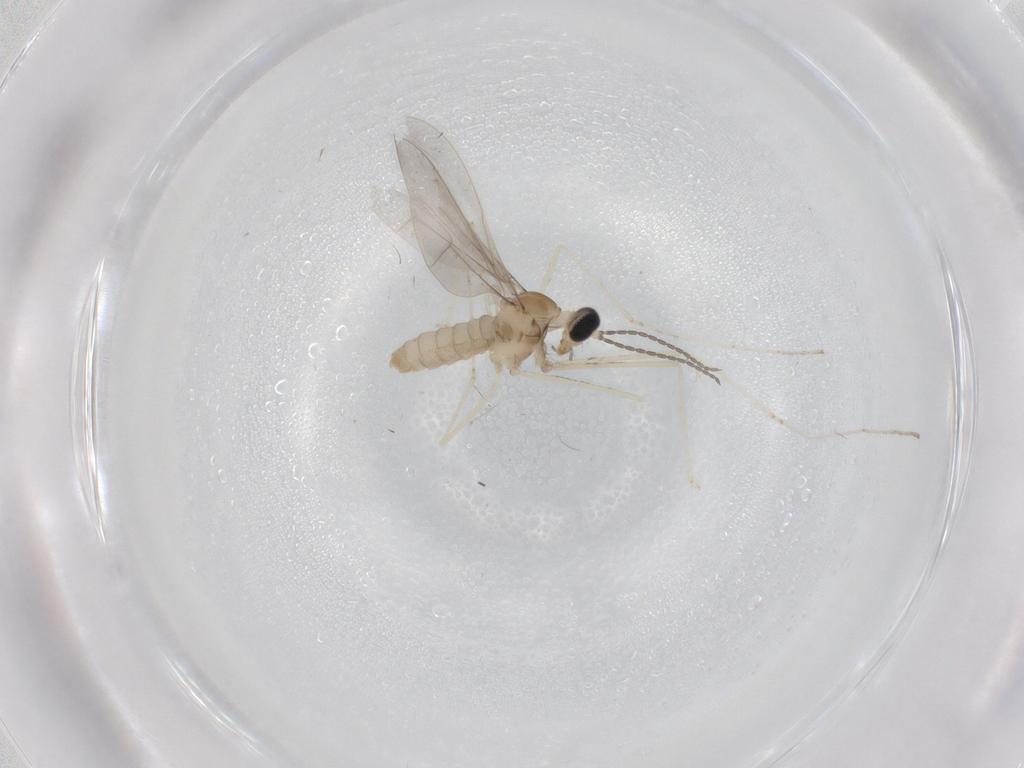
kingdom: Animalia
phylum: Arthropoda
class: Insecta
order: Diptera
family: Cecidomyiidae
